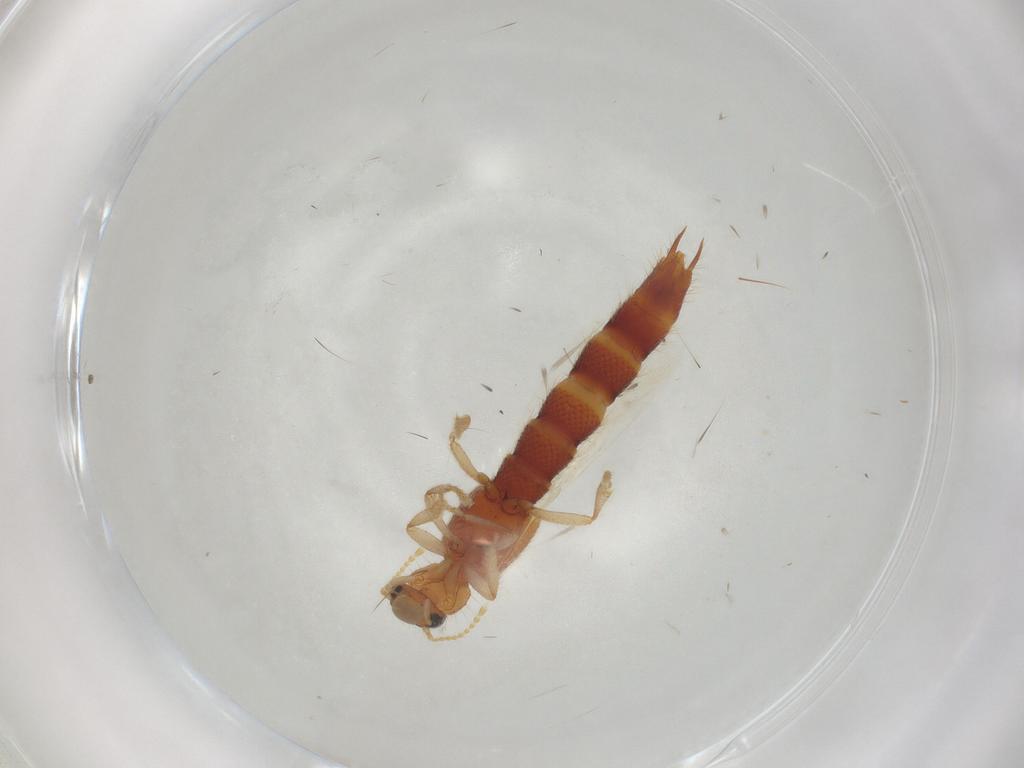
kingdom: Animalia
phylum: Arthropoda
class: Insecta
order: Coleoptera
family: Staphylinidae
